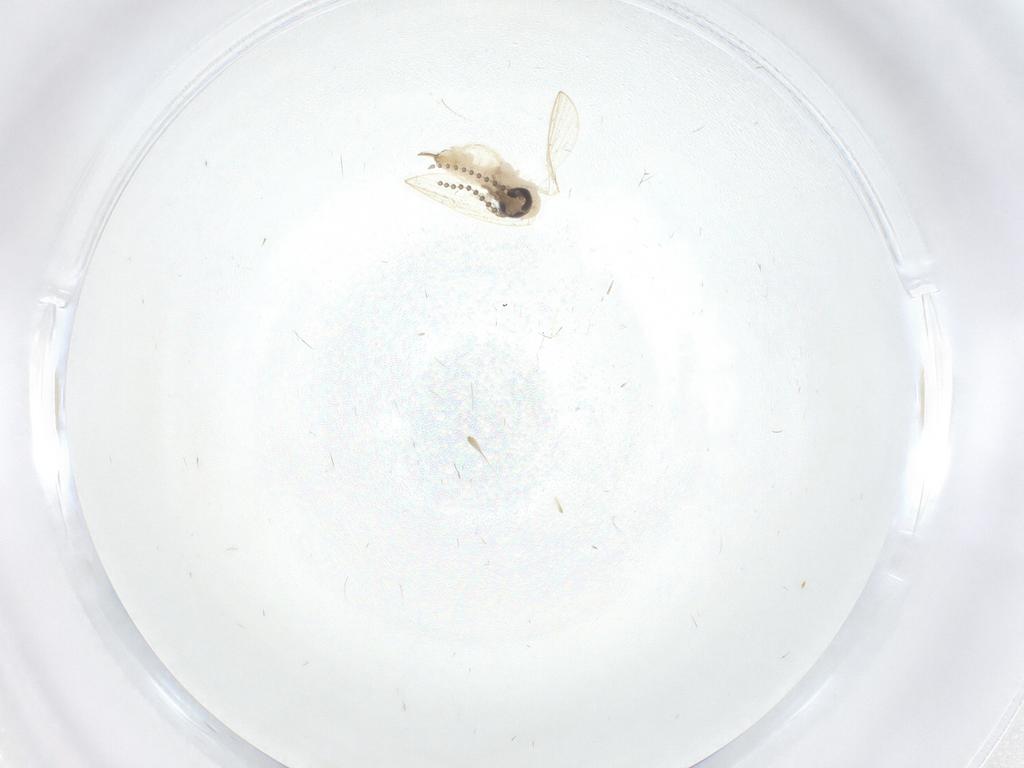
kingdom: Animalia
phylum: Arthropoda
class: Insecta
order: Diptera
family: Psychodidae
